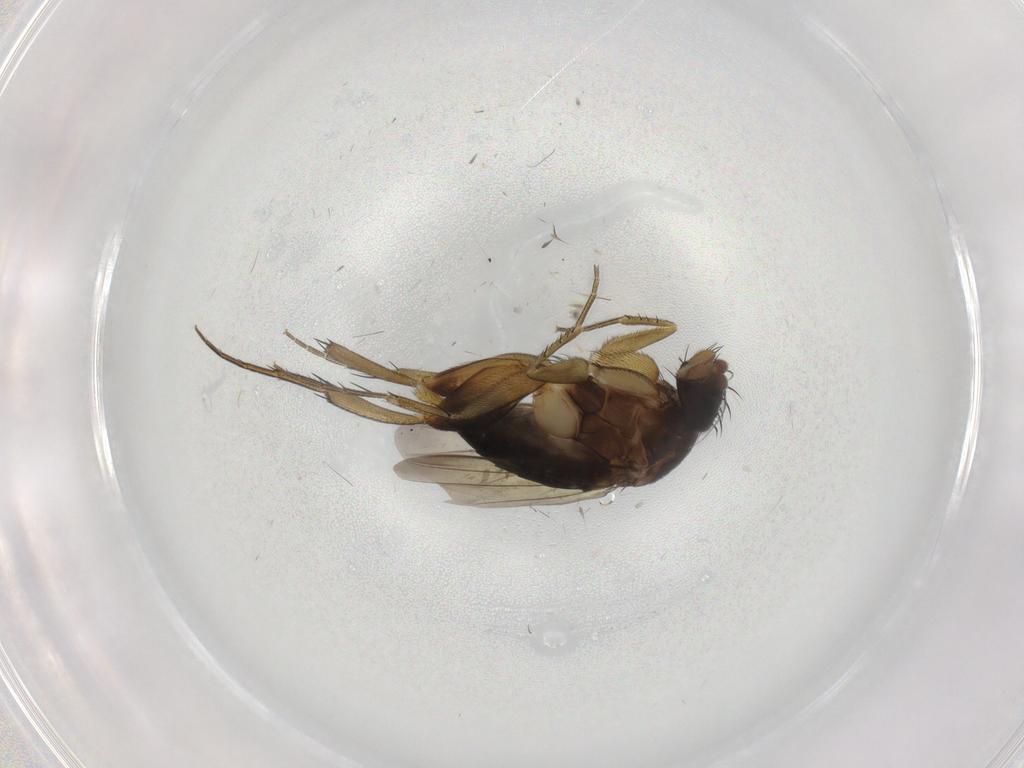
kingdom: Animalia
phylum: Arthropoda
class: Insecta
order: Diptera
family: Phoridae
